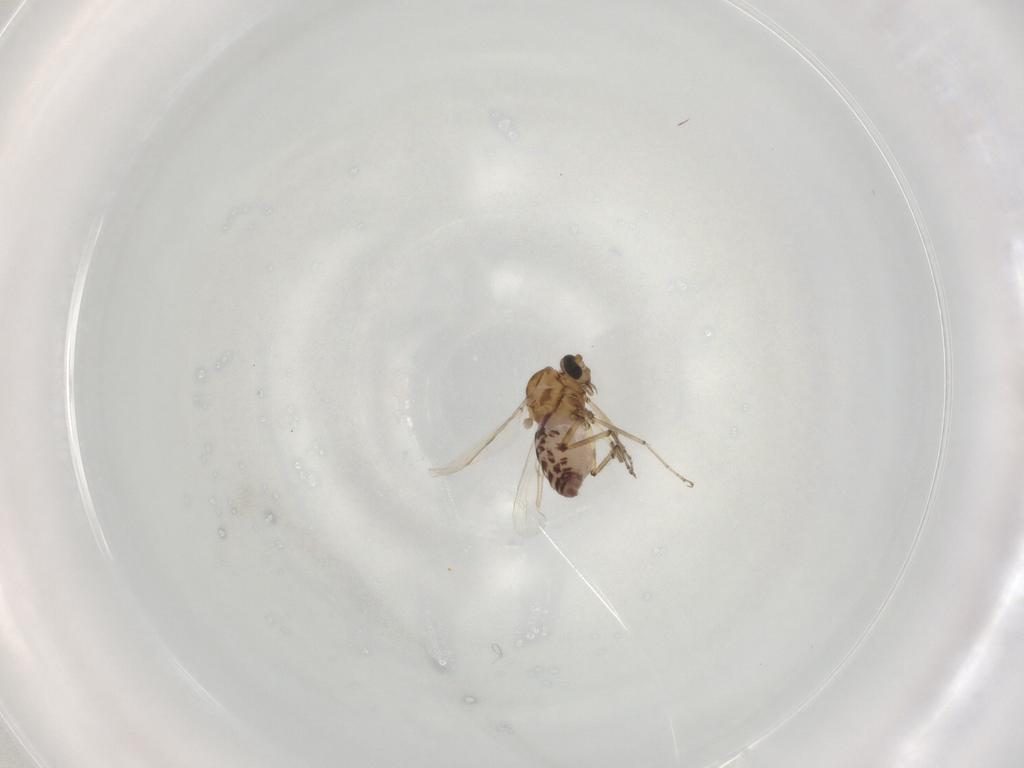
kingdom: Animalia
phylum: Arthropoda
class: Insecta
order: Diptera
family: Ceratopogonidae
